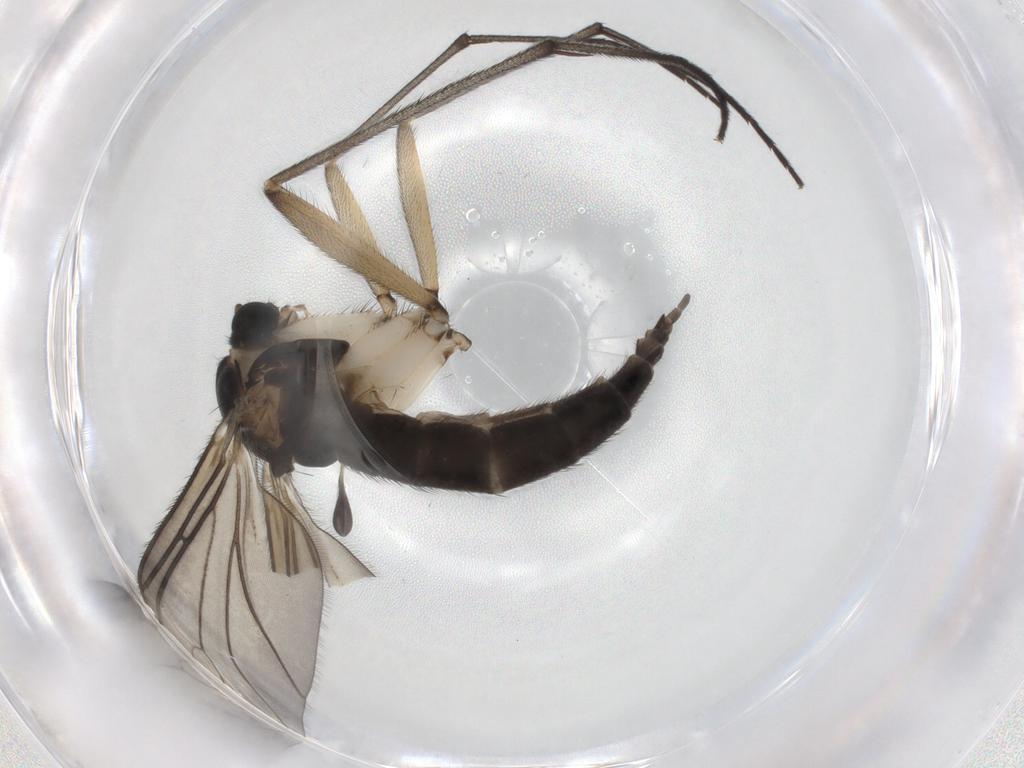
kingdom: Animalia
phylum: Arthropoda
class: Insecta
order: Diptera
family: Sciaridae
